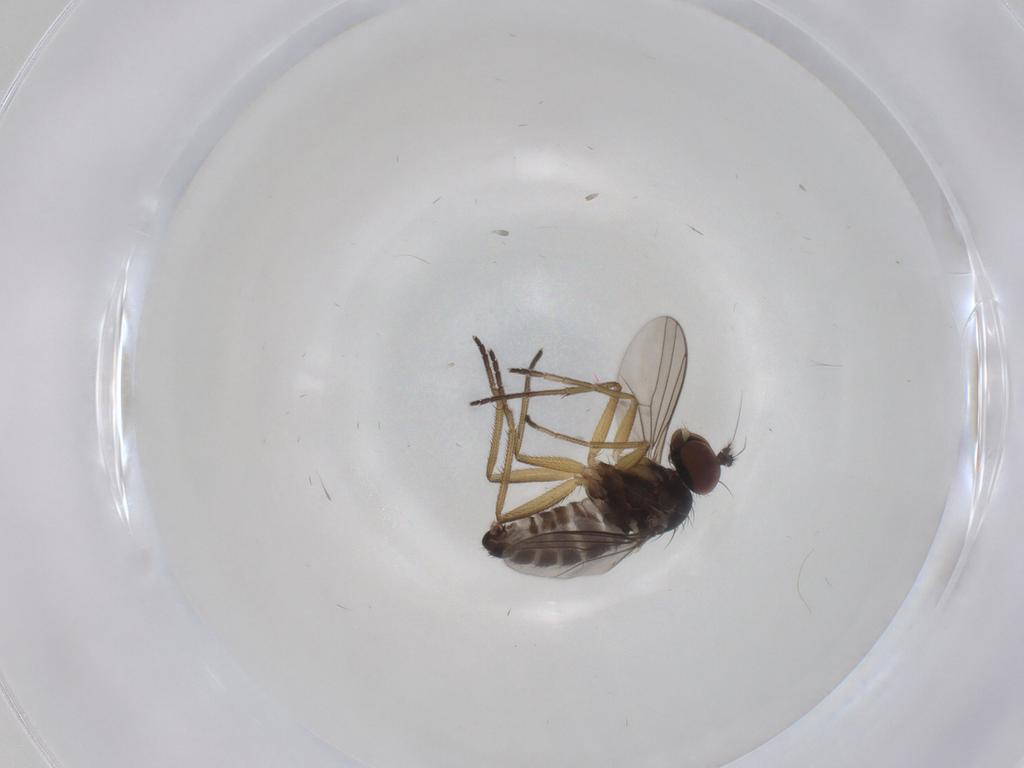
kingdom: Animalia
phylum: Arthropoda
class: Insecta
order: Diptera
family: Dolichopodidae
